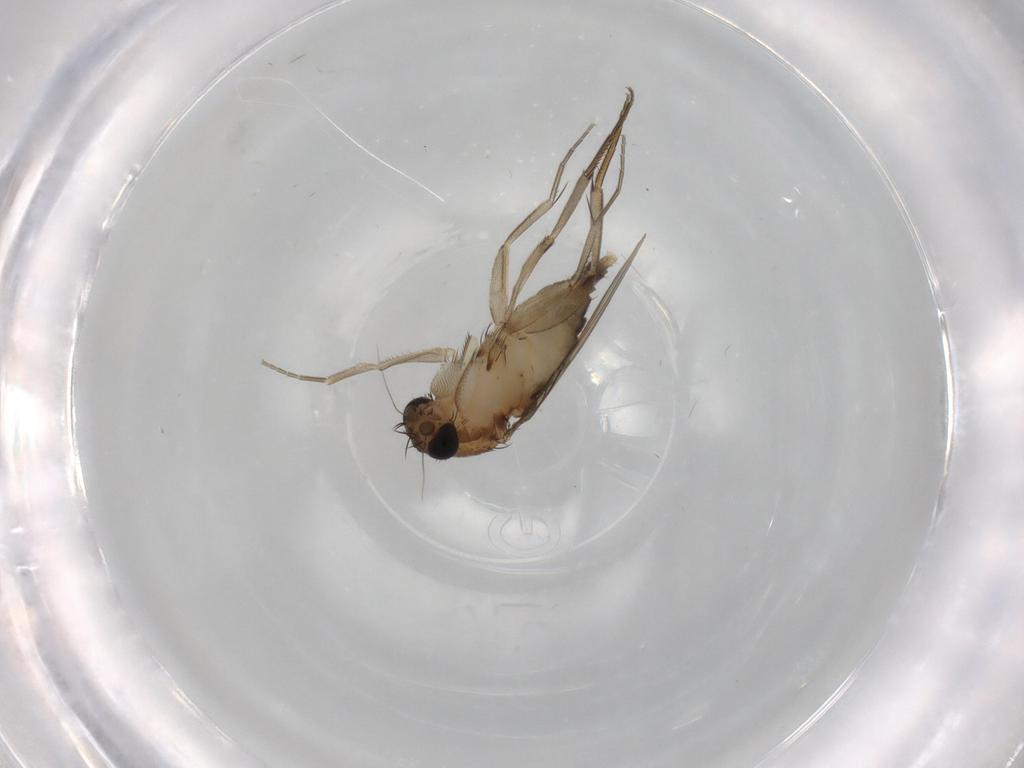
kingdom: Animalia
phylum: Arthropoda
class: Insecta
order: Diptera
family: Phoridae
